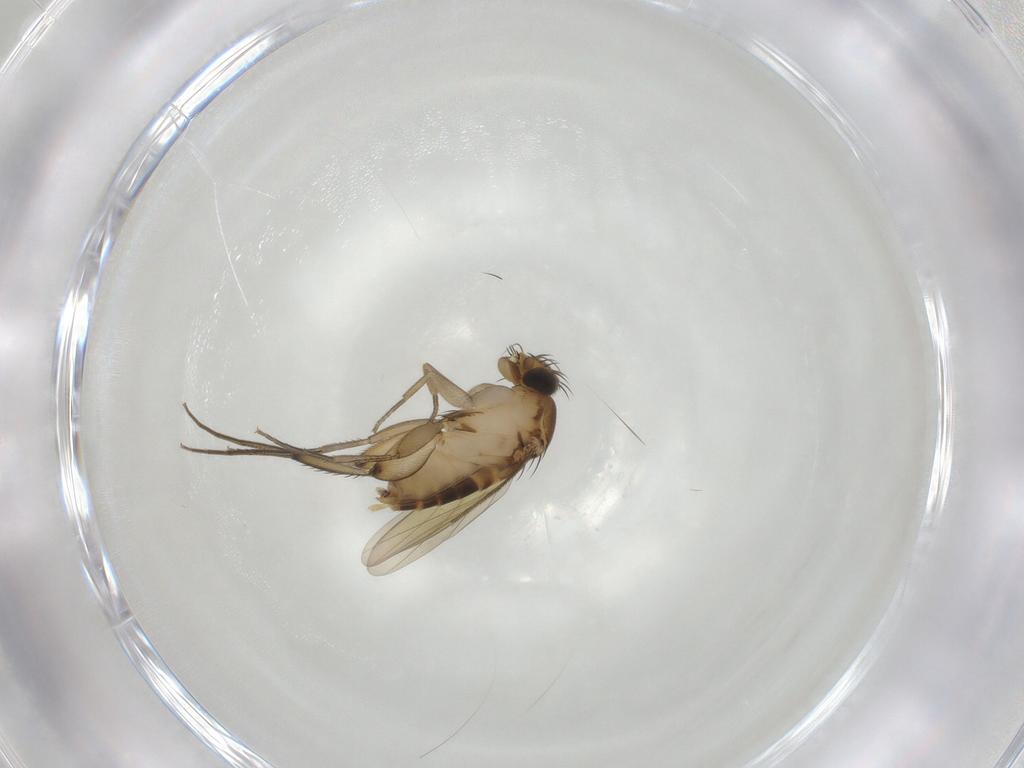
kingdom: Animalia
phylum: Arthropoda
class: Insecta
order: Diptera
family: Phoridae
